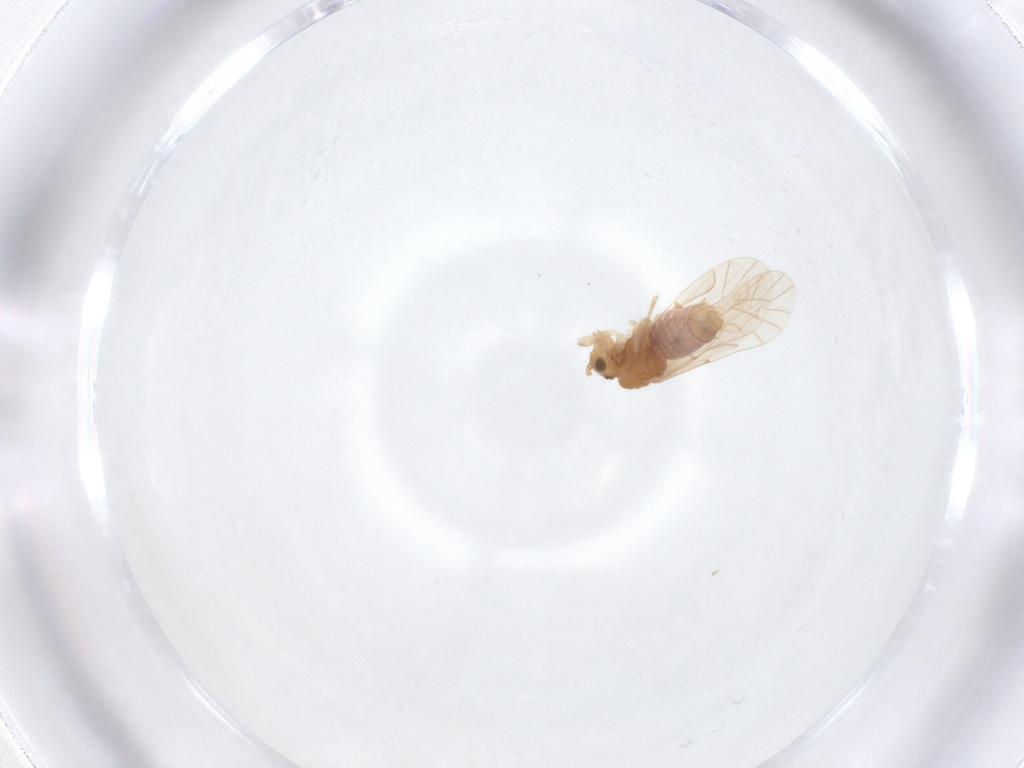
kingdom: Animalia
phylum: Arthropoda
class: Insecta
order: Psocodea
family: Lachesillidae
